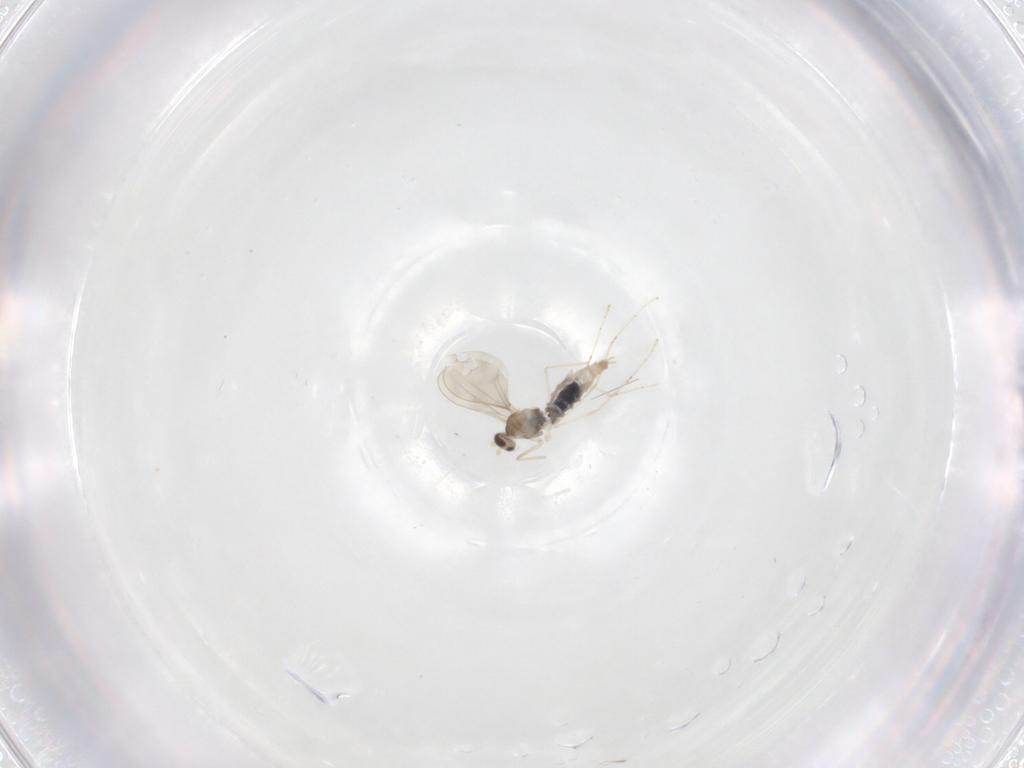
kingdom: Animalia
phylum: Arthropoda
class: Insecta
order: Diptera
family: Cecidomyiidae
